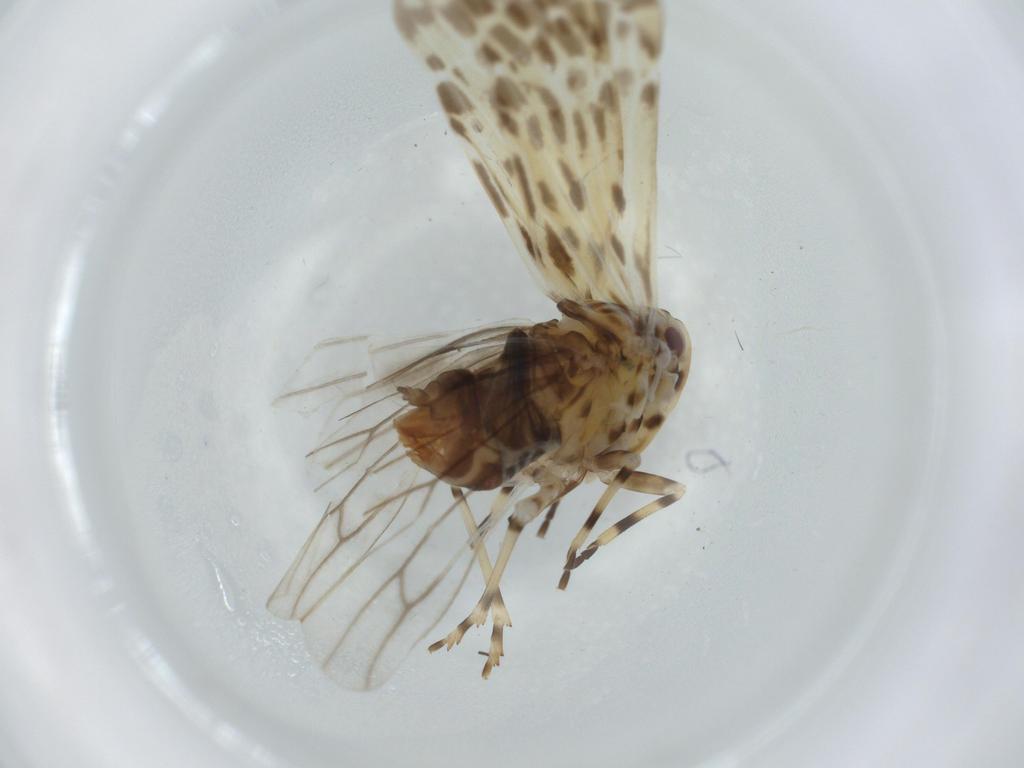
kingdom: Animalia
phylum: Arthropoda
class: Insecta
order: Hemiptera
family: Derbidae
